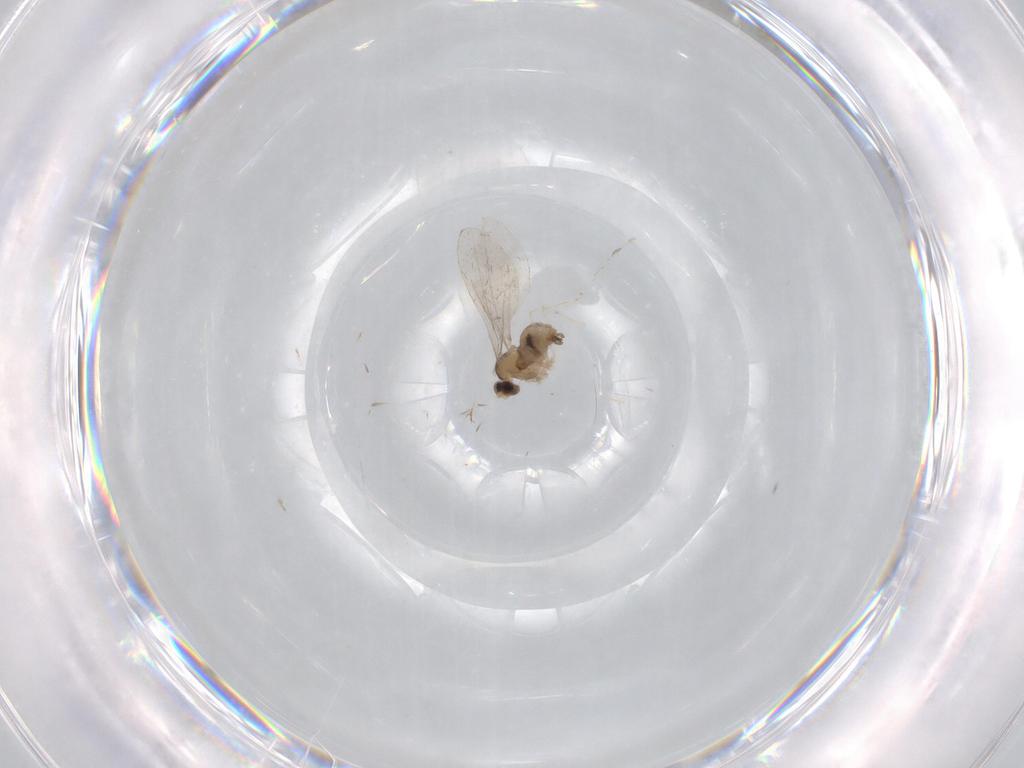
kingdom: Animalia
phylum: Arthropoda
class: Insecta
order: Diptera
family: Cecidomyiidae
